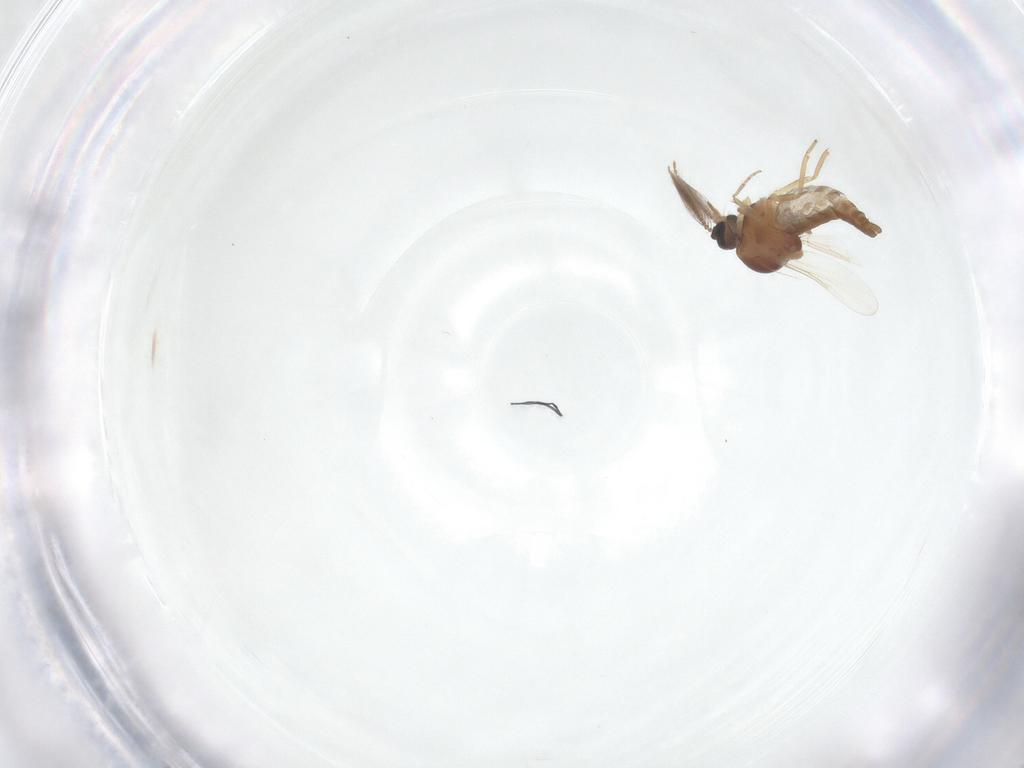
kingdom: Animalia
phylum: Arthropoda
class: Insecta
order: Diptera
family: Ceratopogonidae
